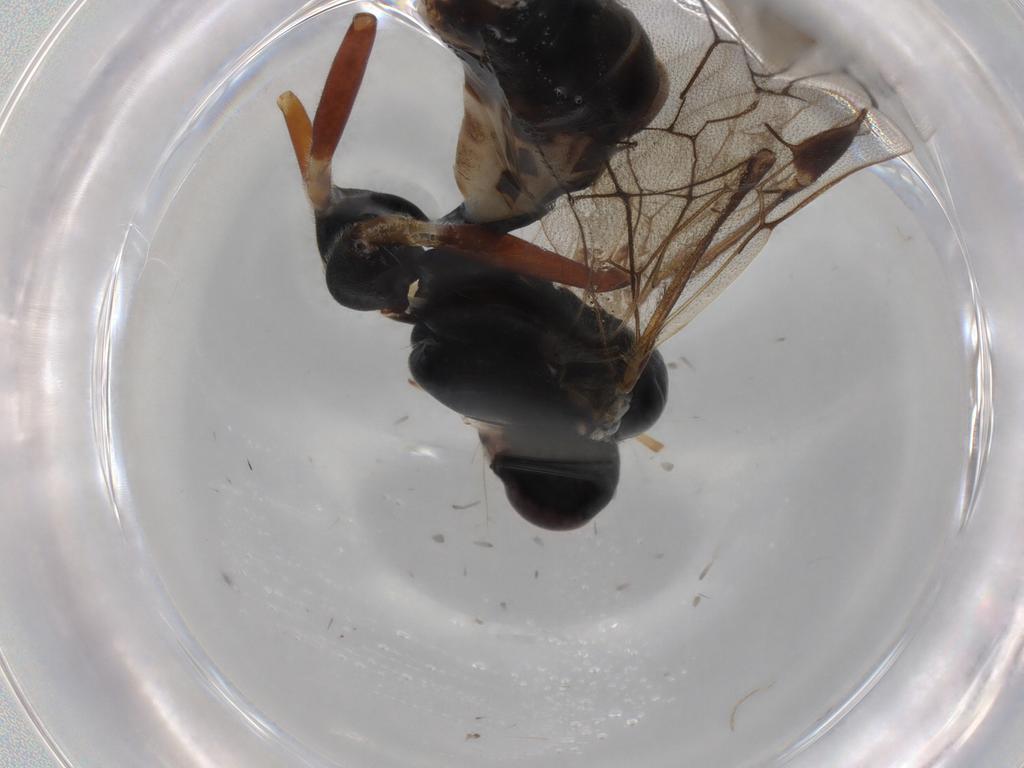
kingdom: Animalia
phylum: Arthropoda
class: Insecta
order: Hymenoptera
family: Ichneumonidae
